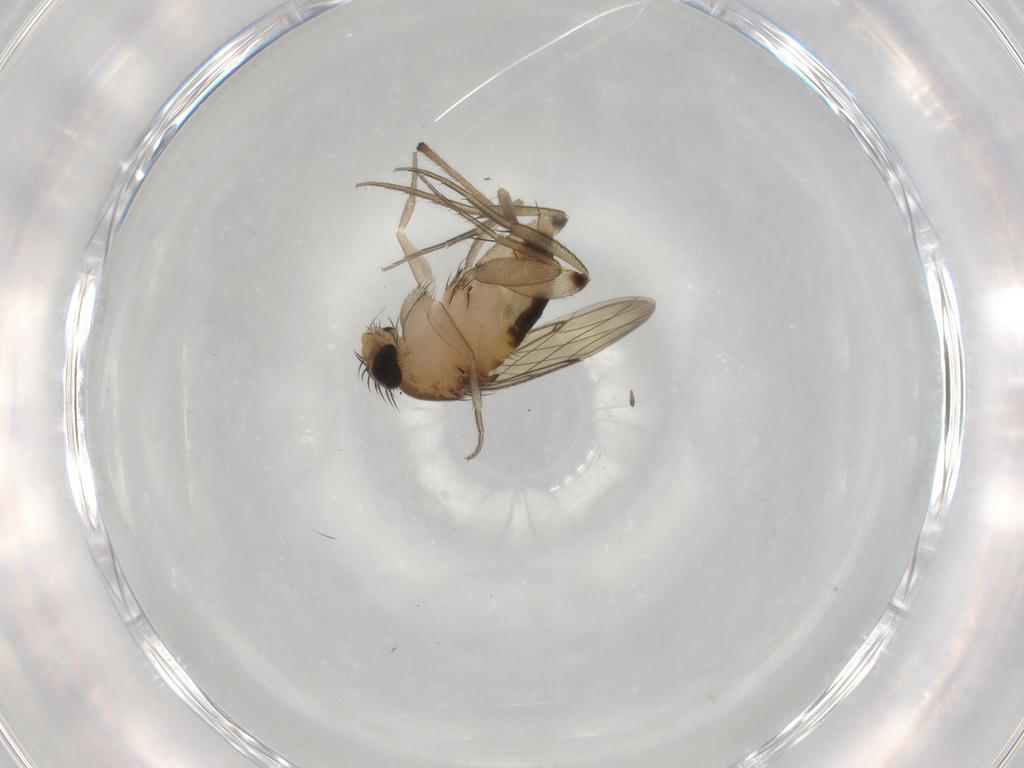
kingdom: Animalia
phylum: Arthropoda
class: Insecta
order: Diptera
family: Phoridae
